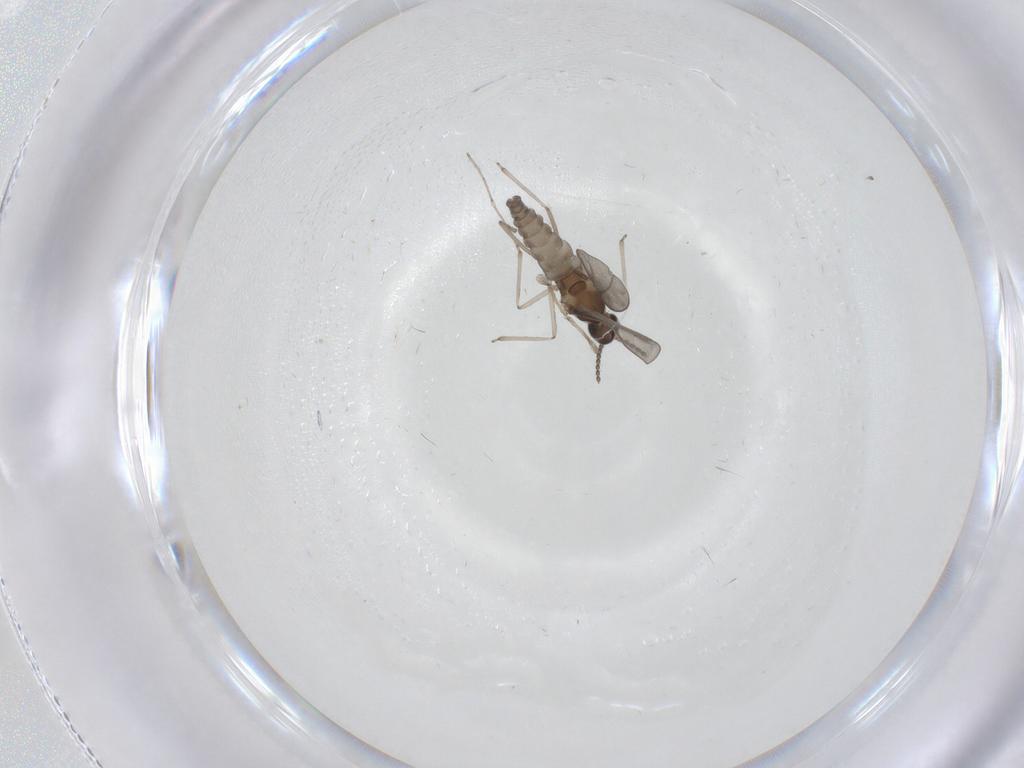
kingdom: Animalia
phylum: Arthropoda
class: Insecta
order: Diptera
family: Psychodidae
